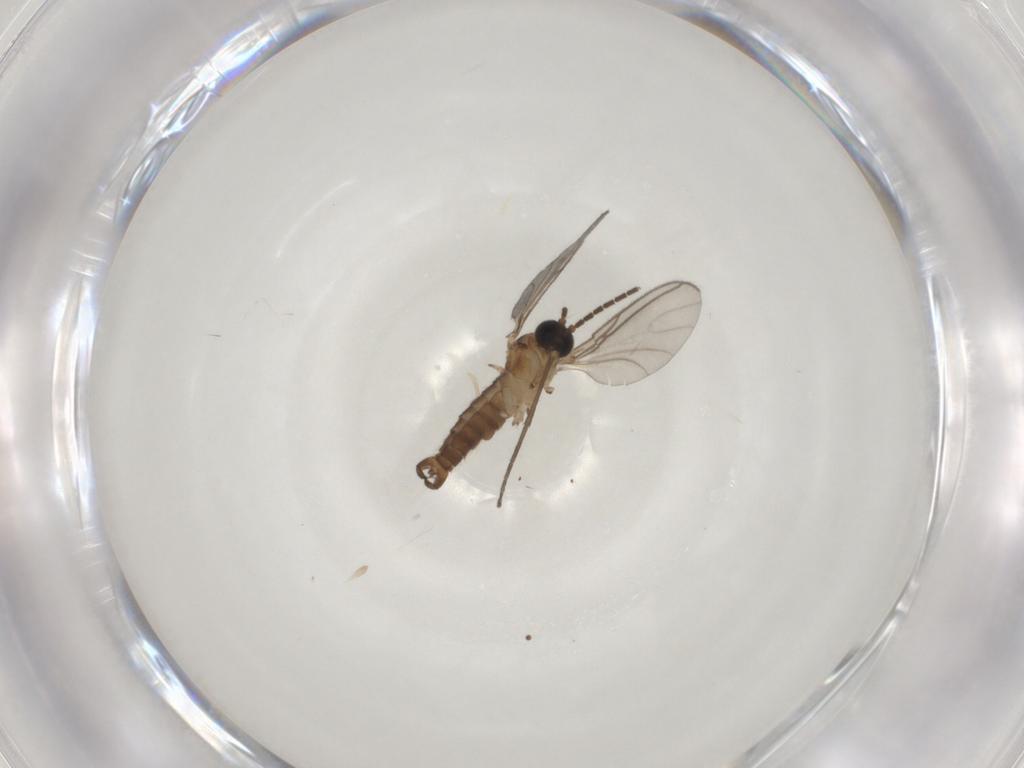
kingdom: Animalia
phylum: Arthropoda
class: Insecta
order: Diptera
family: Sciaridae
